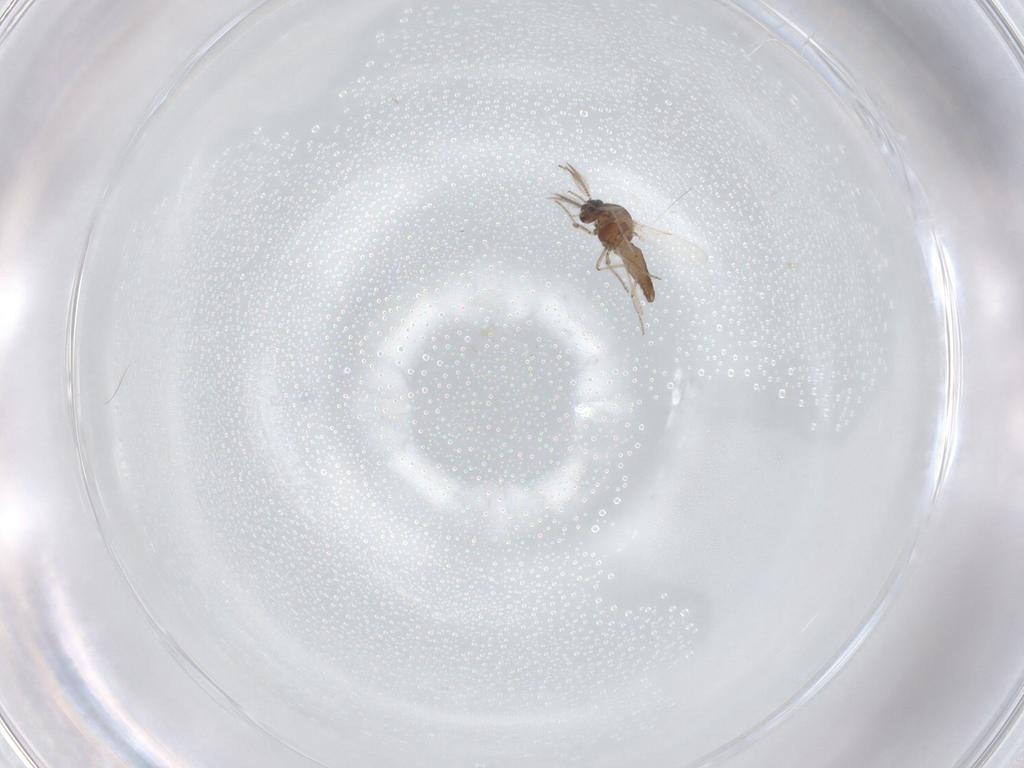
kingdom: Animalia
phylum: Arthropoda
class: Insecta
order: Diptera
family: Ceratopogonidae
